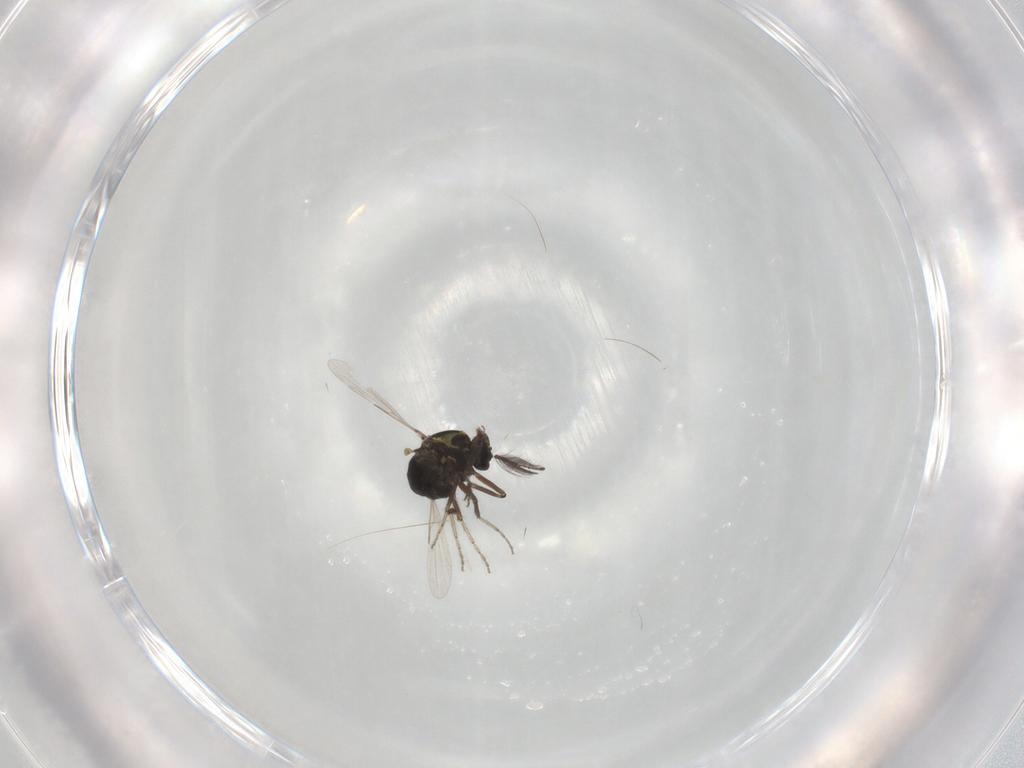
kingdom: Animalia
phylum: Arthropoda
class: Insecta
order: Diptera
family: Ceratopogonidae
